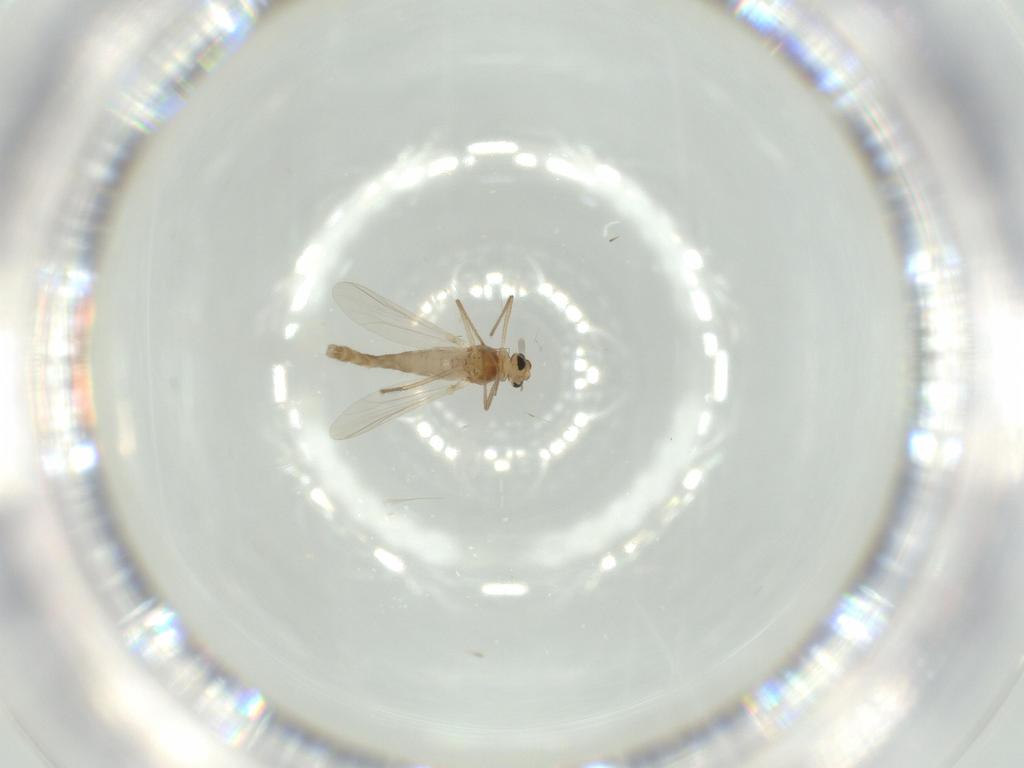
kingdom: Animalia
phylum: Arthropoda
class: Insecta
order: Diptera
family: Chironomidae
